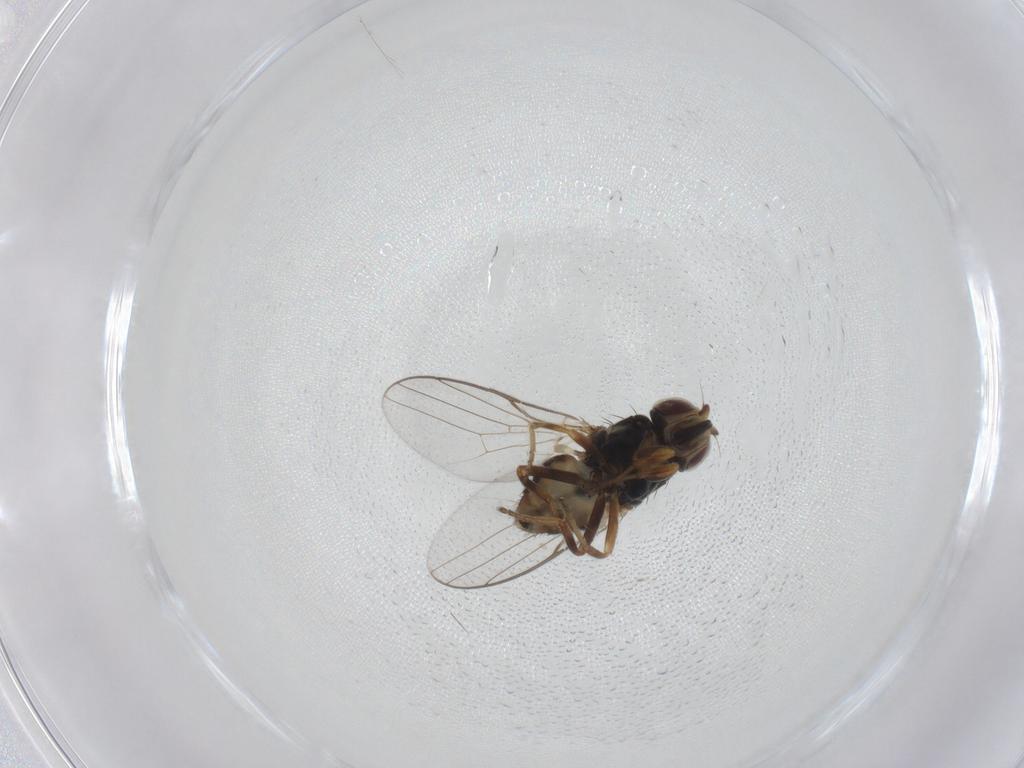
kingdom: Animalia
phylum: Arthropoda
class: Insecta
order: Diptera
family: Chloropidae
